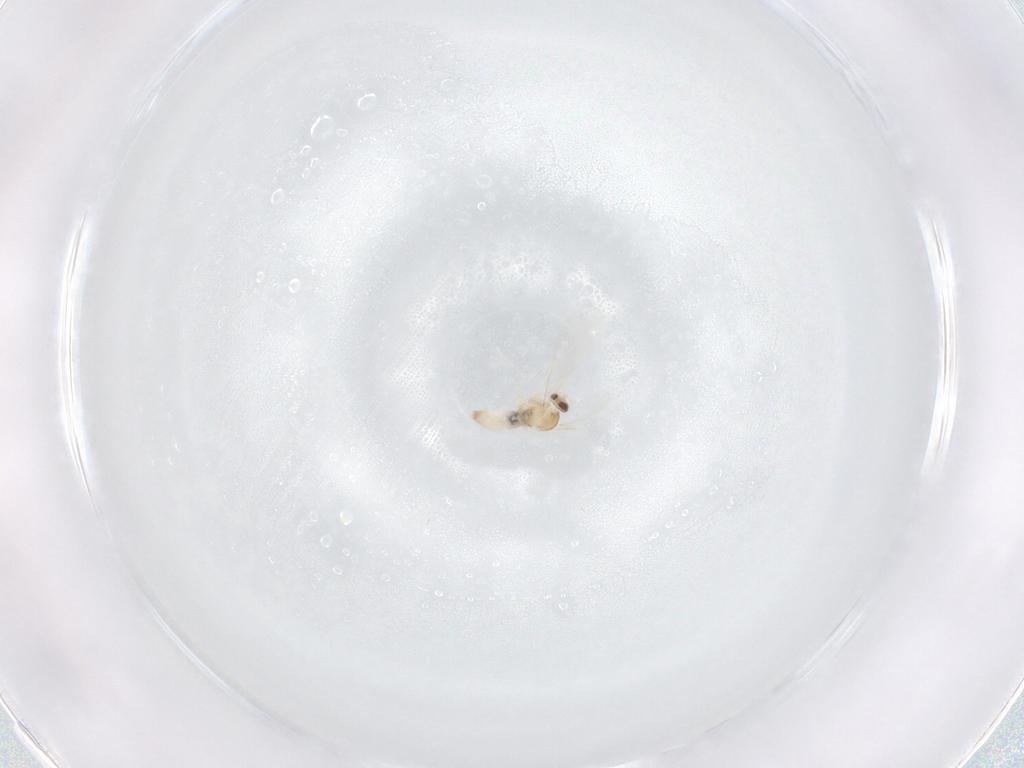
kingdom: Animalia
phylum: Arthropoda
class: Insecta
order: Diptera
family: Cecidomyiidae
